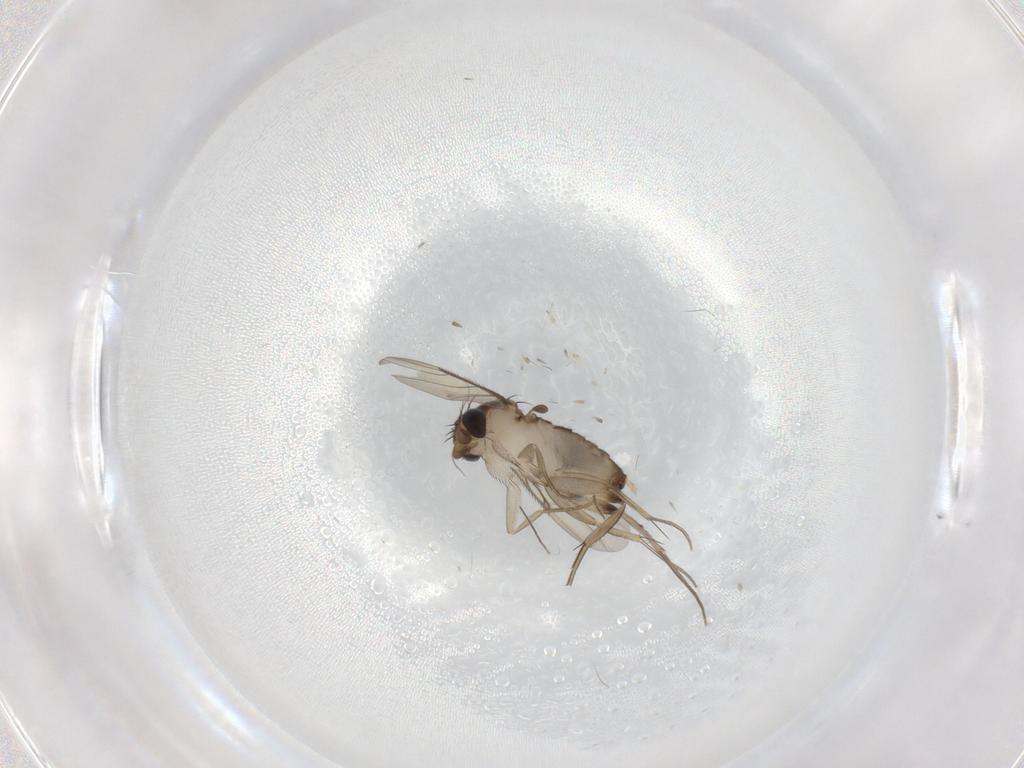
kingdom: Animalia
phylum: Arthropoda
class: Insecta
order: Diptera
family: Phoridae
